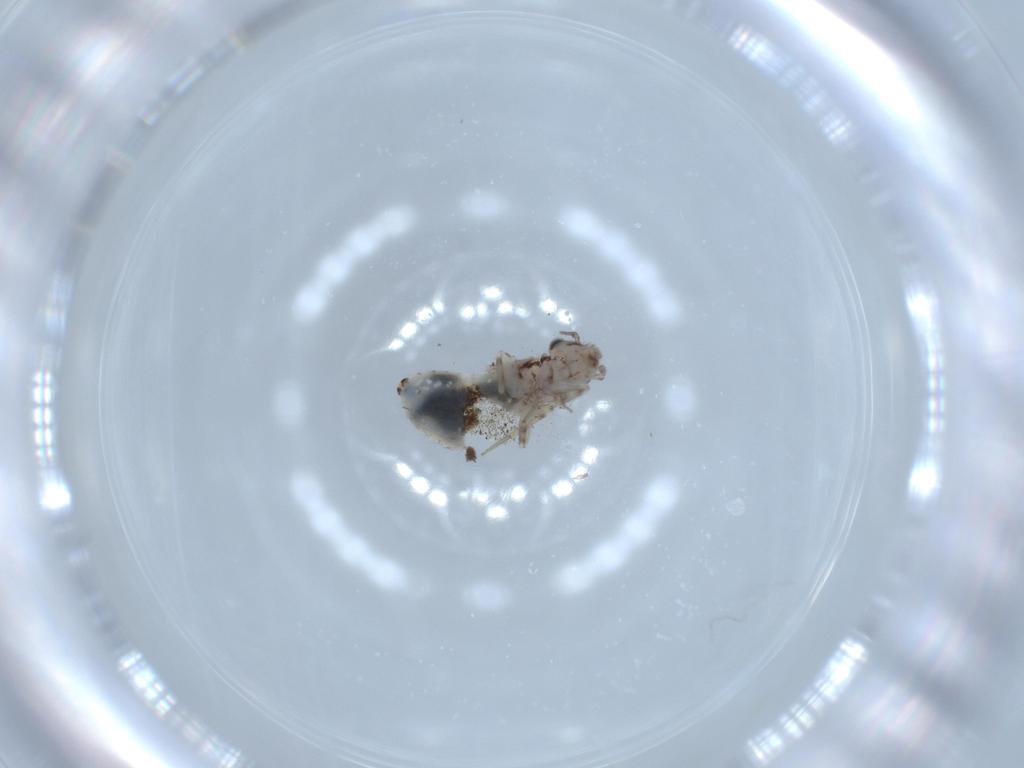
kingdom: Animalia
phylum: Arthropoda
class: Insecta
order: Psocodea
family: Lepidopsocidae
